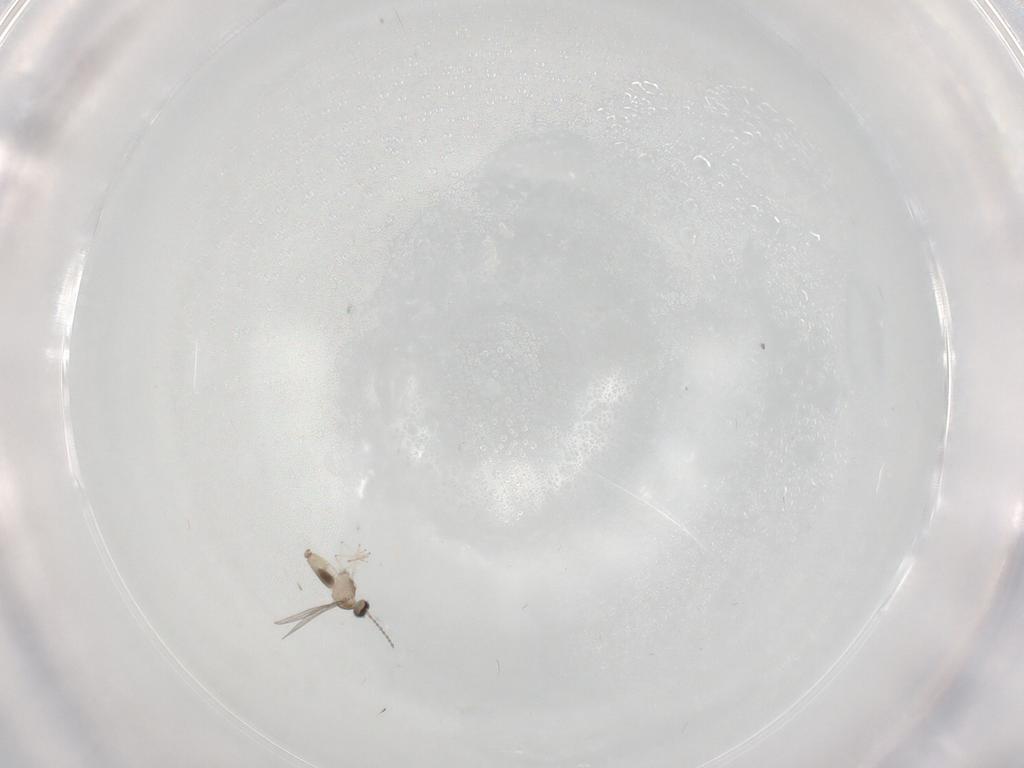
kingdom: Animalia
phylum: Arthropoda
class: Insecta
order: Diptera
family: Cecidomyiidae
